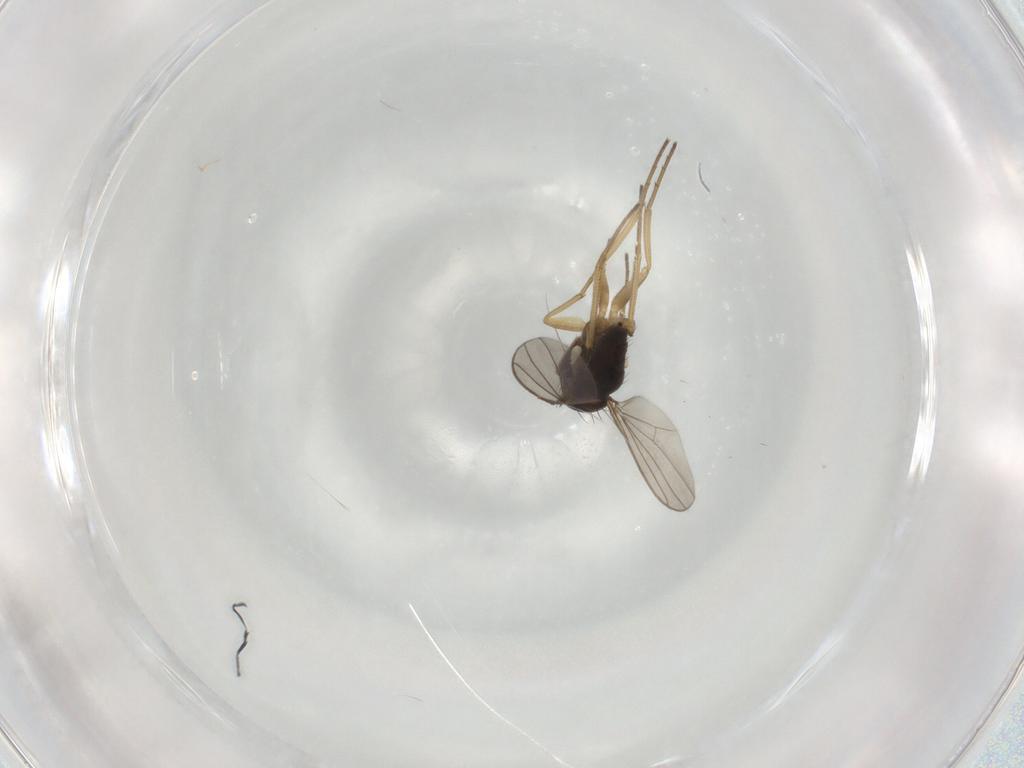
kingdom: Animalia
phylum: Arthropoda
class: Insecta
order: Diptera
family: Dolichopodidae
